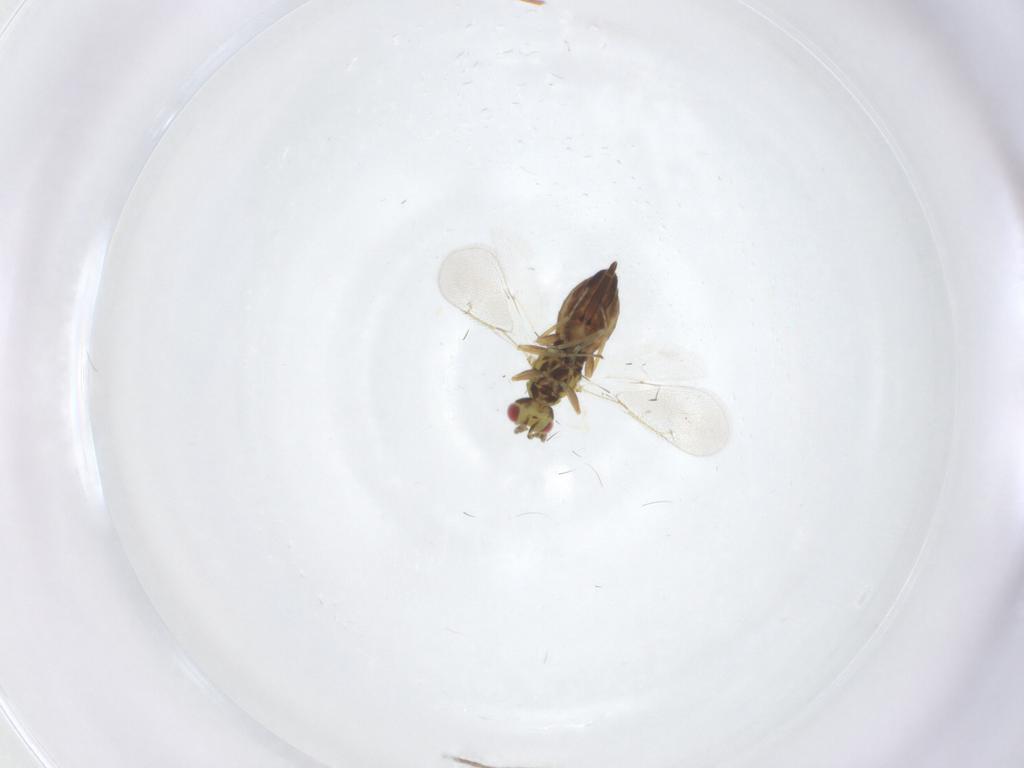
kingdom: Animalia
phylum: Arthropoda
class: Insecta
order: Hymenoptera
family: Eulophidae
